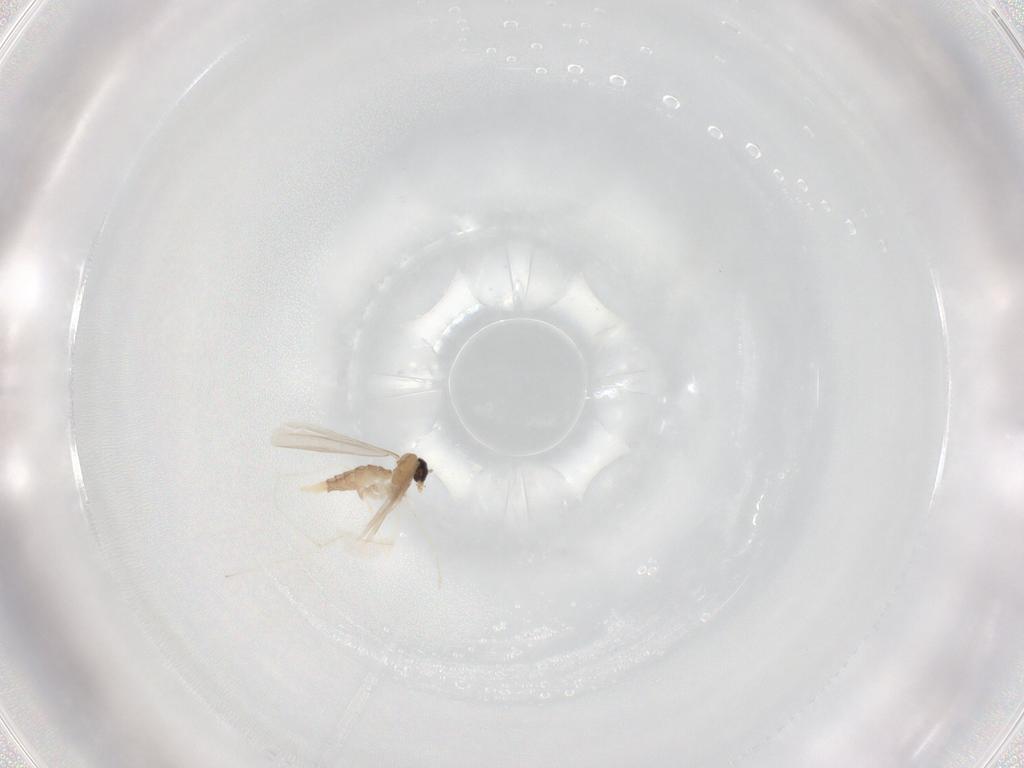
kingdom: Animalia
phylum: Arthropoda
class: Insecta
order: Diptera
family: Cecidomyiidae
